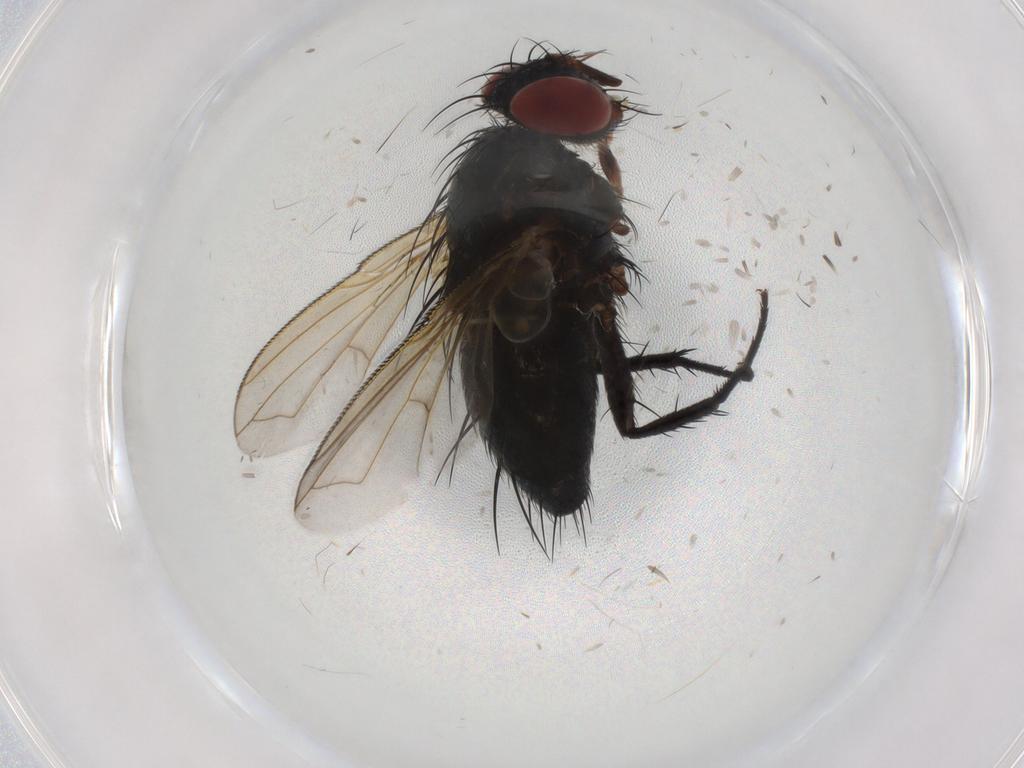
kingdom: Animalia
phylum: Arthropoda
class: Insecta
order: Diptera
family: Tachinidae
